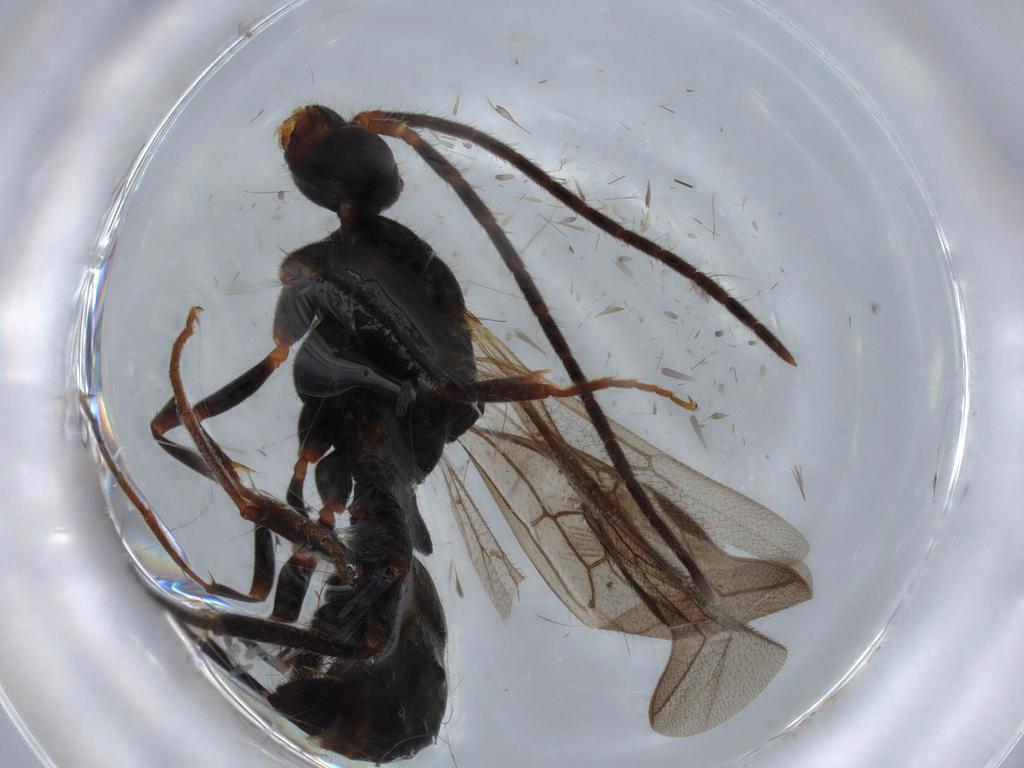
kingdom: Animalia
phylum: Arthropoda
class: Insecta
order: Hymenoptera
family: Formicidae
